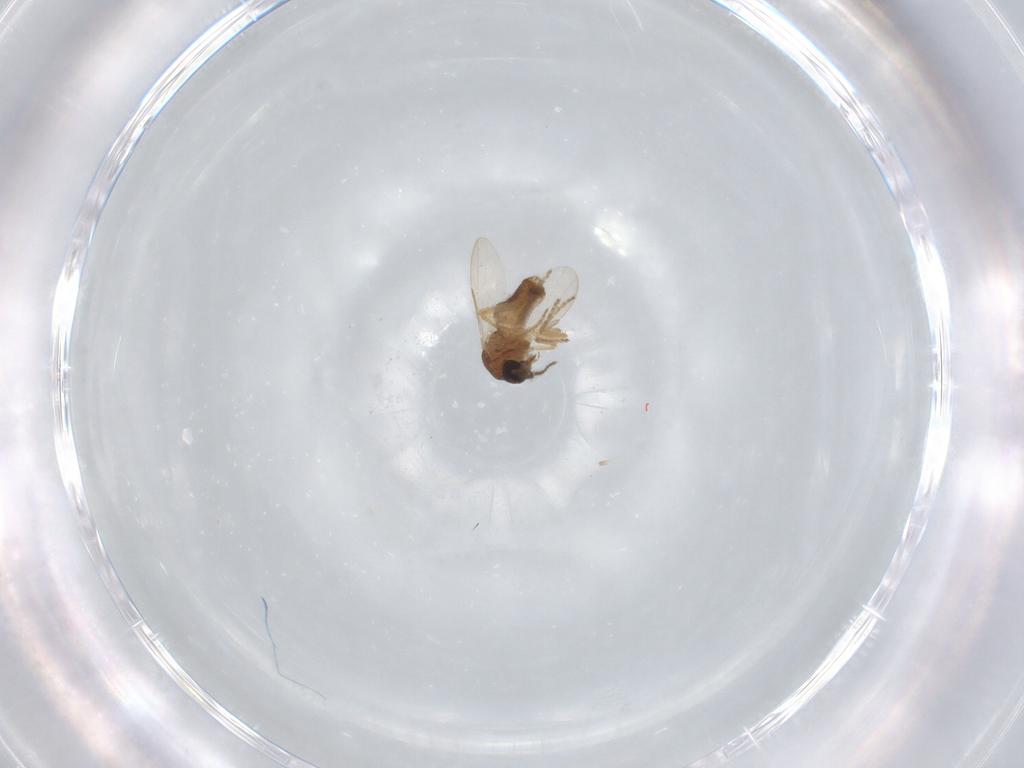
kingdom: Animalia
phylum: Arthropoda
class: Insecta
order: Diptera
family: Ceratopogonidae
